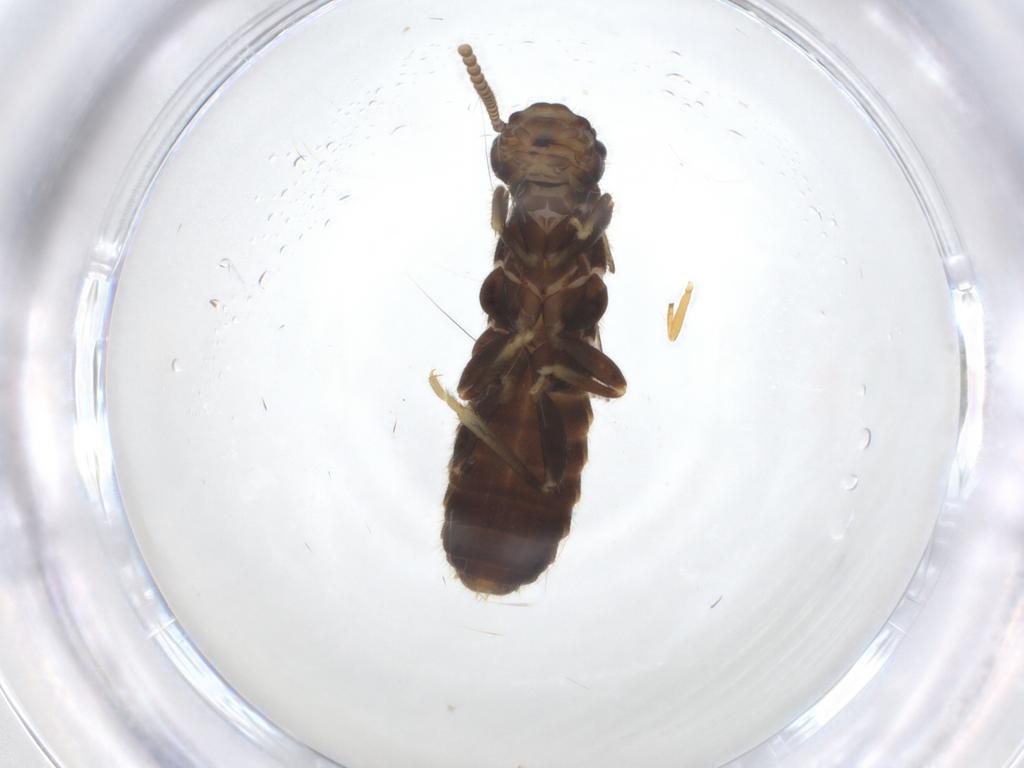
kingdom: Animalia
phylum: Arthropoda
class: Insecta
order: Blattodea
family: Rhinotermitidae
